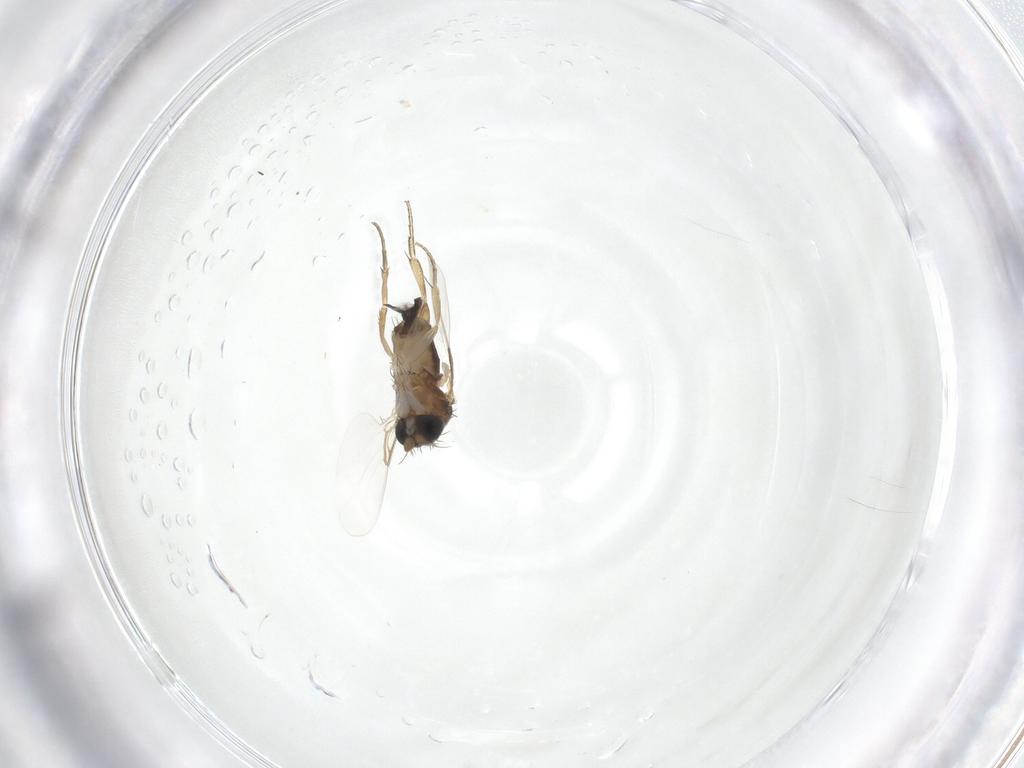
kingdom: Animalia
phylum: Arthropoda
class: Insecta
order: Diptera
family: Phoridae
